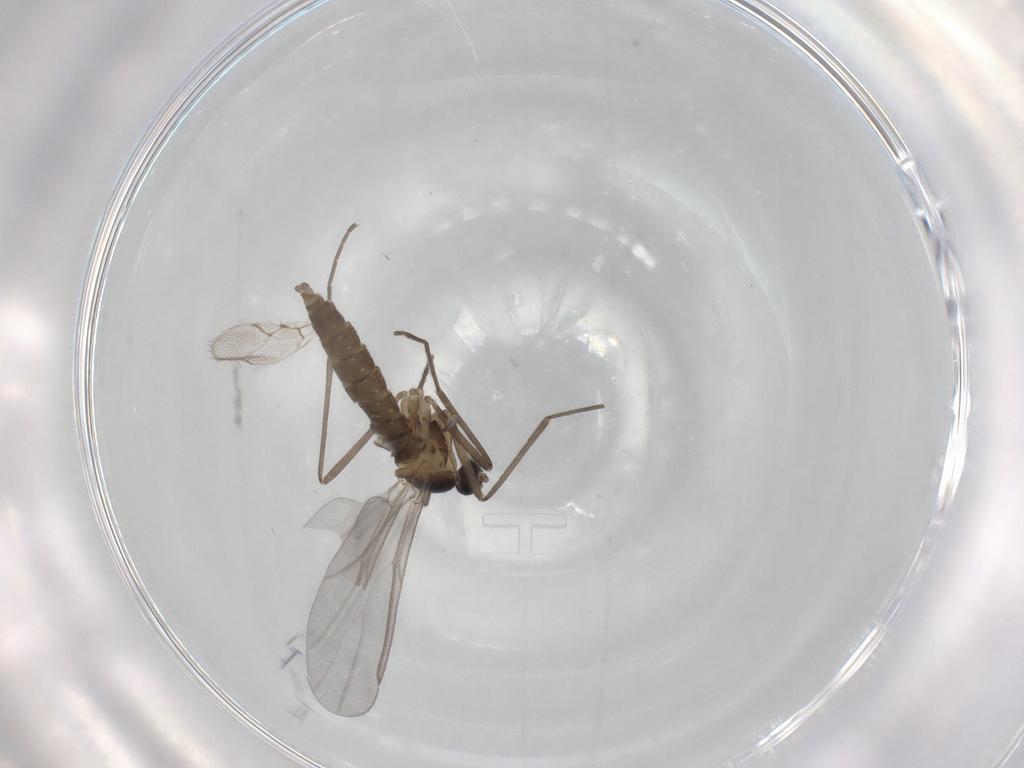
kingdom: Animalia
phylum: Arthropoda
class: Insecta
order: Diptera
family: Cecidomyiidae
